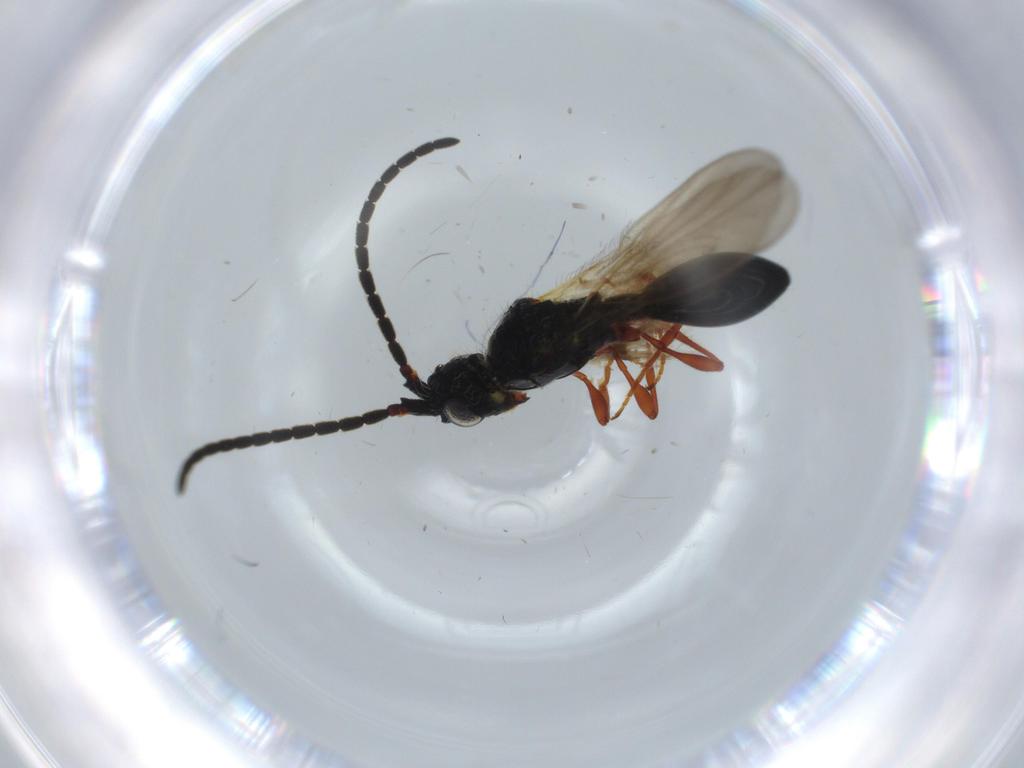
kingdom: Animalia
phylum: Arthropoda
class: Insecta
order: Hymenoptera
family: Diapriidae
